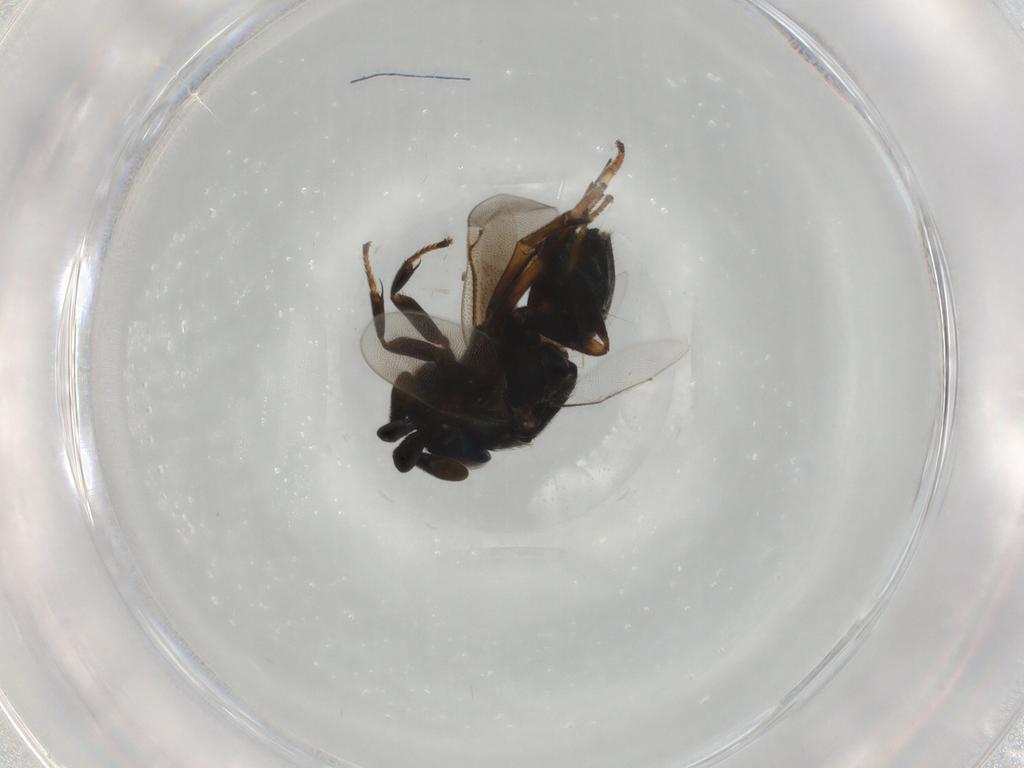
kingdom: Animalia
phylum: Arthropoda
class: Insecta
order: Hymenoptera
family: Encyrtidae
